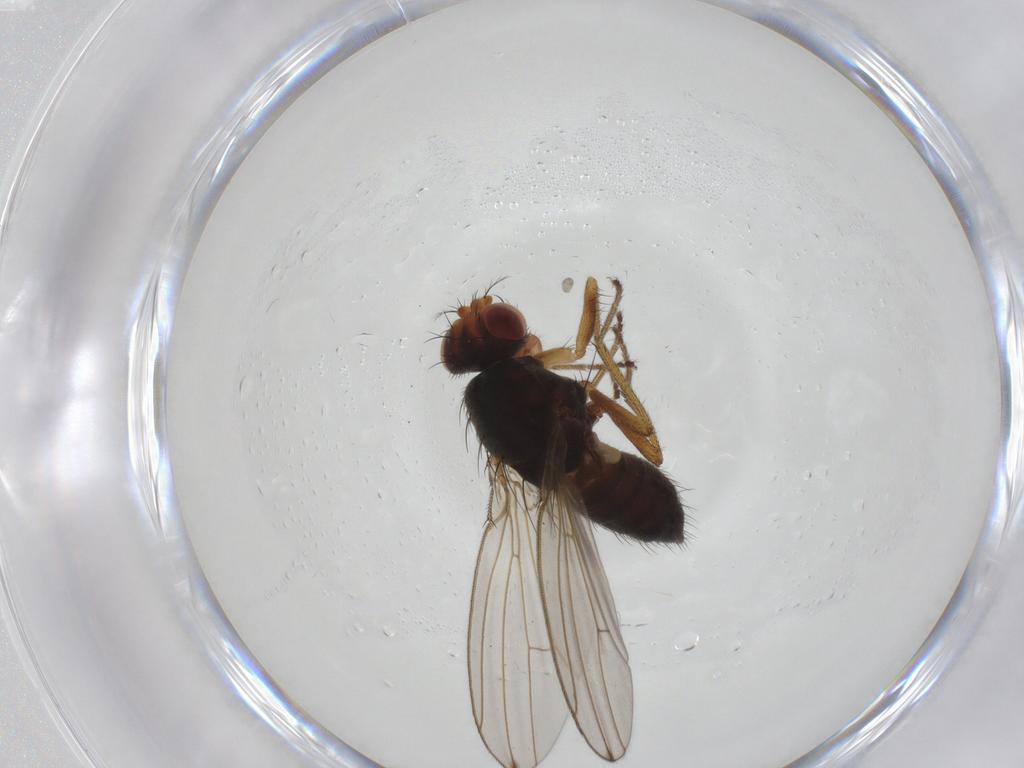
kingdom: Animalia
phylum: Arthropoda
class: Insecta
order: Diptera
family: Drosophilidae
